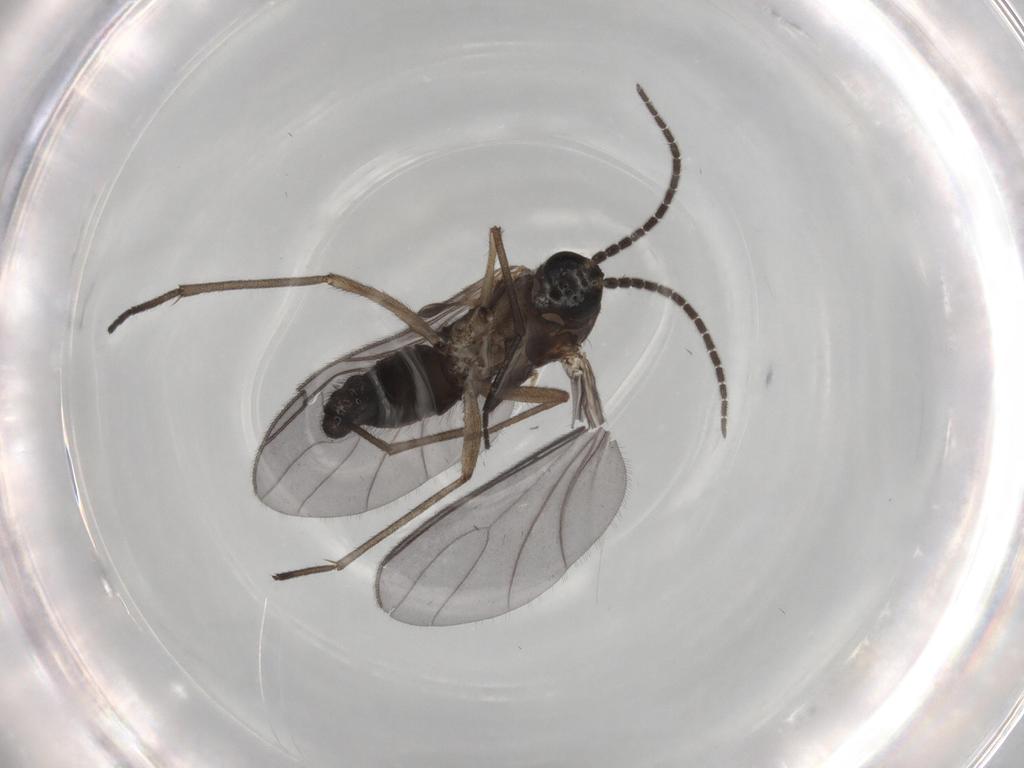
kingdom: Animalia
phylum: Arthropoda
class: Insecta
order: Diptera
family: Sciaridae
